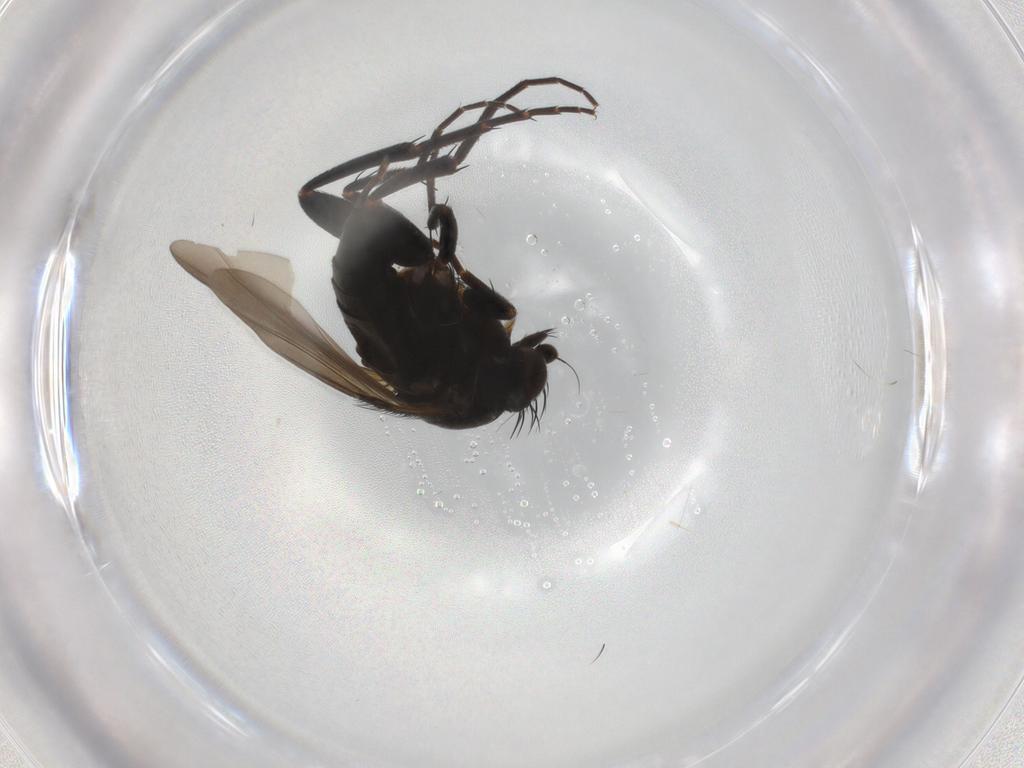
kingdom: Animalia
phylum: Arthropoda
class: Insecta
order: Diptera
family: Phoridae
